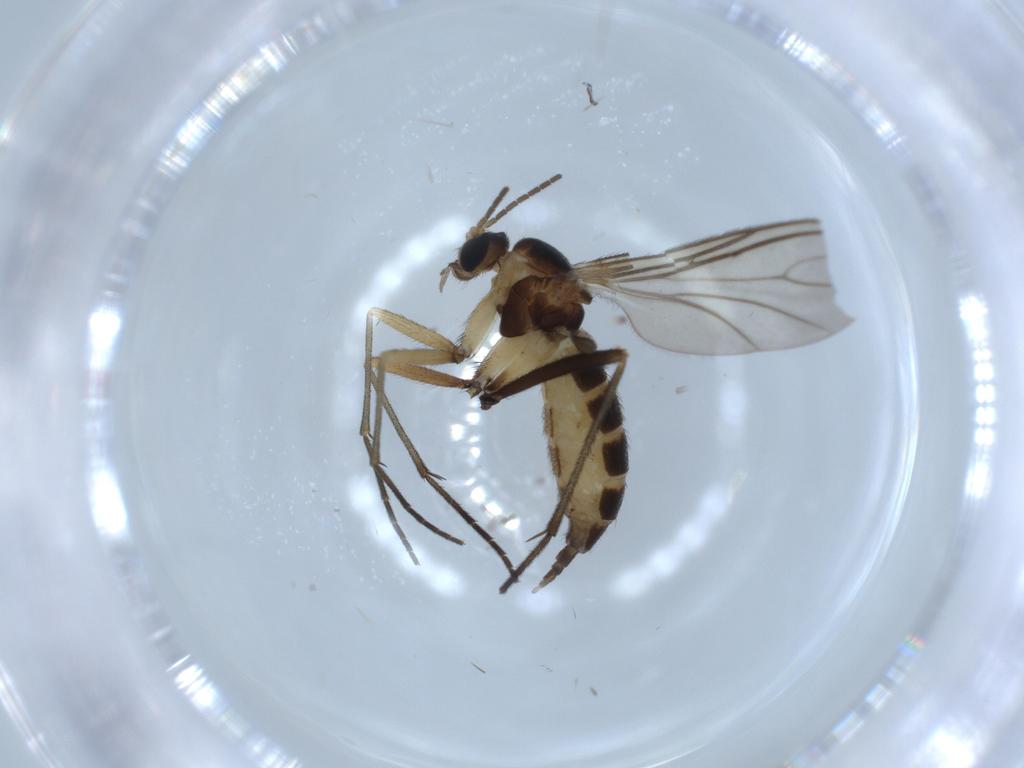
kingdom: Animalia
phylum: Arthropoda
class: Insecta
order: Diptera
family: Sciaridae
